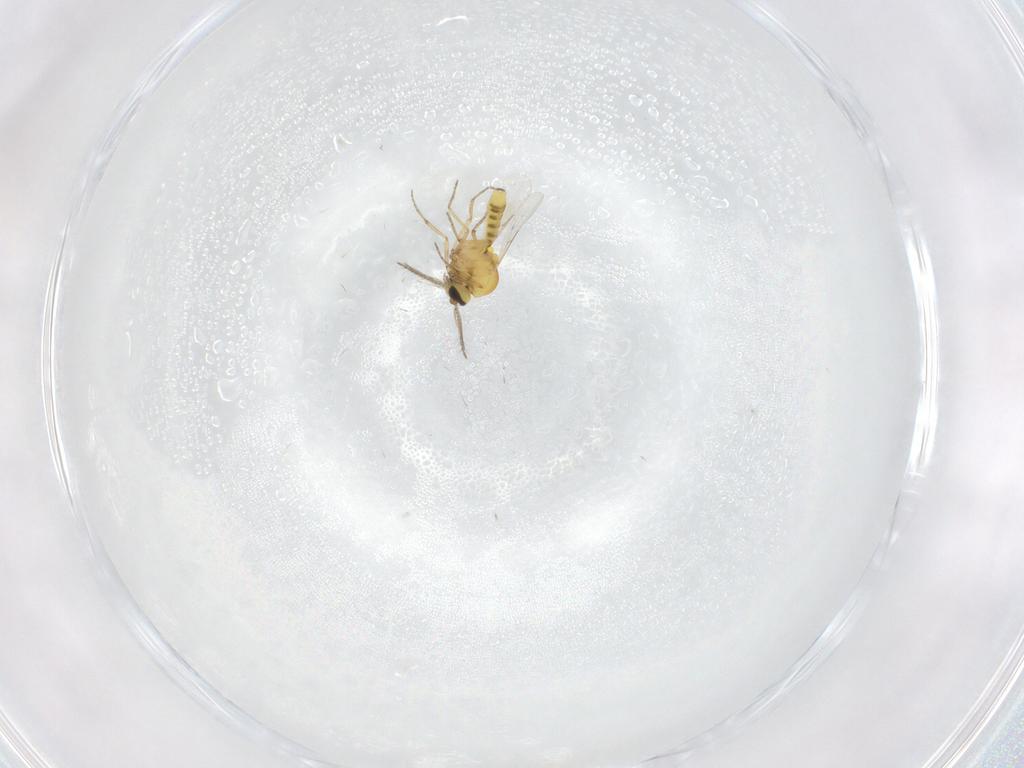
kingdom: Animalia
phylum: Arthropoda
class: Insecta
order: Diptera
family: Ceratopogonidae
